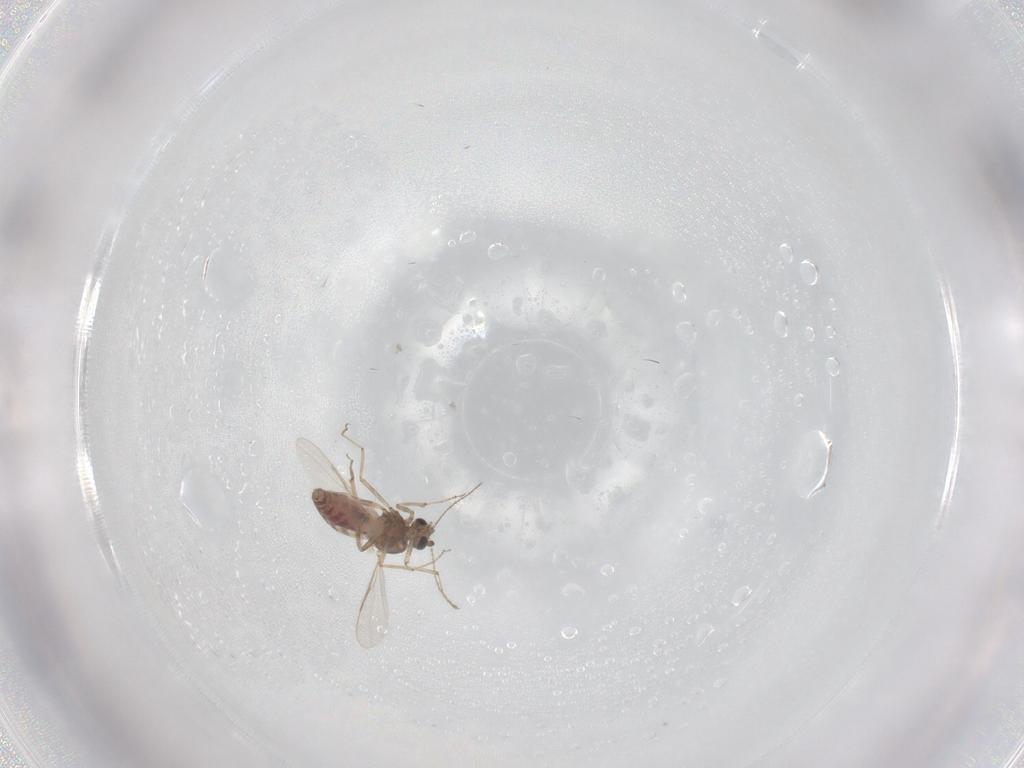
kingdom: Animalia
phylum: Arthropoda
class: Insecta
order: Diptera
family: Ceratopogonidae
